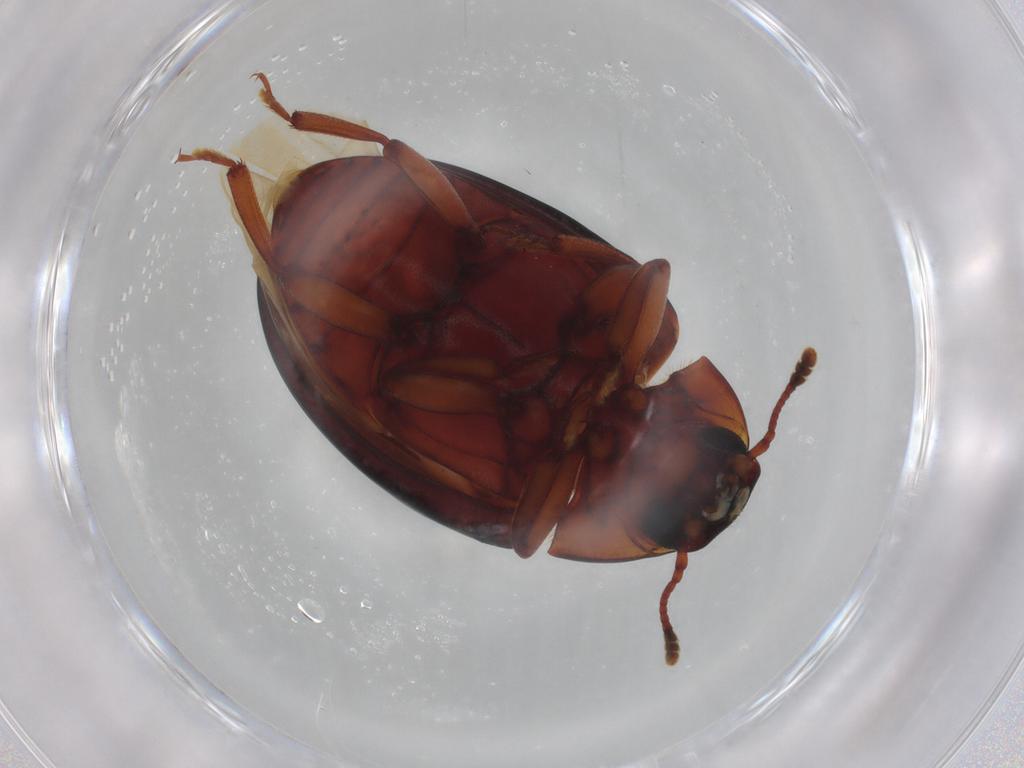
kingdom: Animalia
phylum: Arthropoda
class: Insecta
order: Coleoptera
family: Zopheridae
